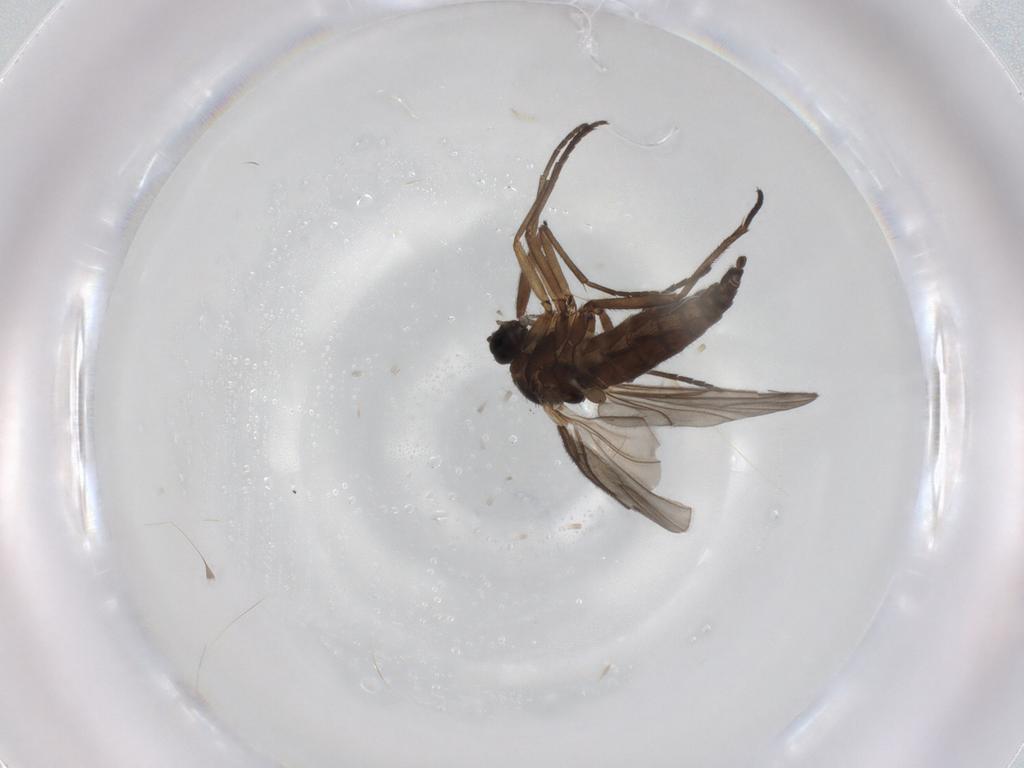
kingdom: Animalia
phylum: Arthropoda
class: Insecta
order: Diptera
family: Sciaridae
